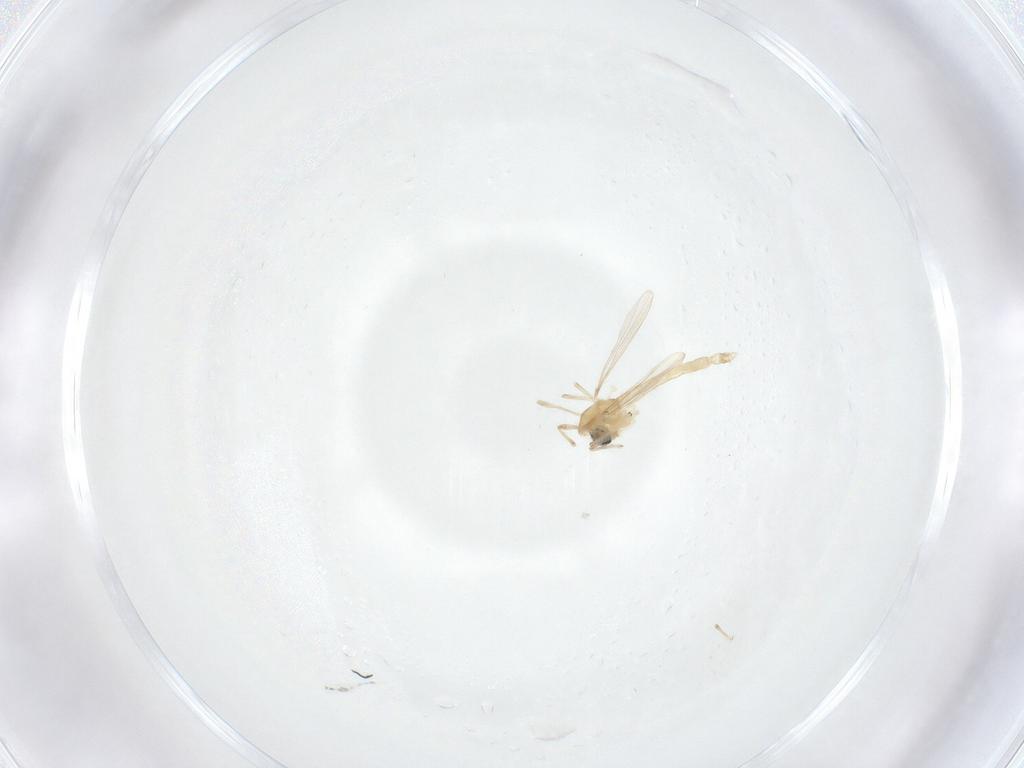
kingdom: Animalia
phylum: Arthropoda
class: Insecta
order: Diptera
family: Chironomidae
